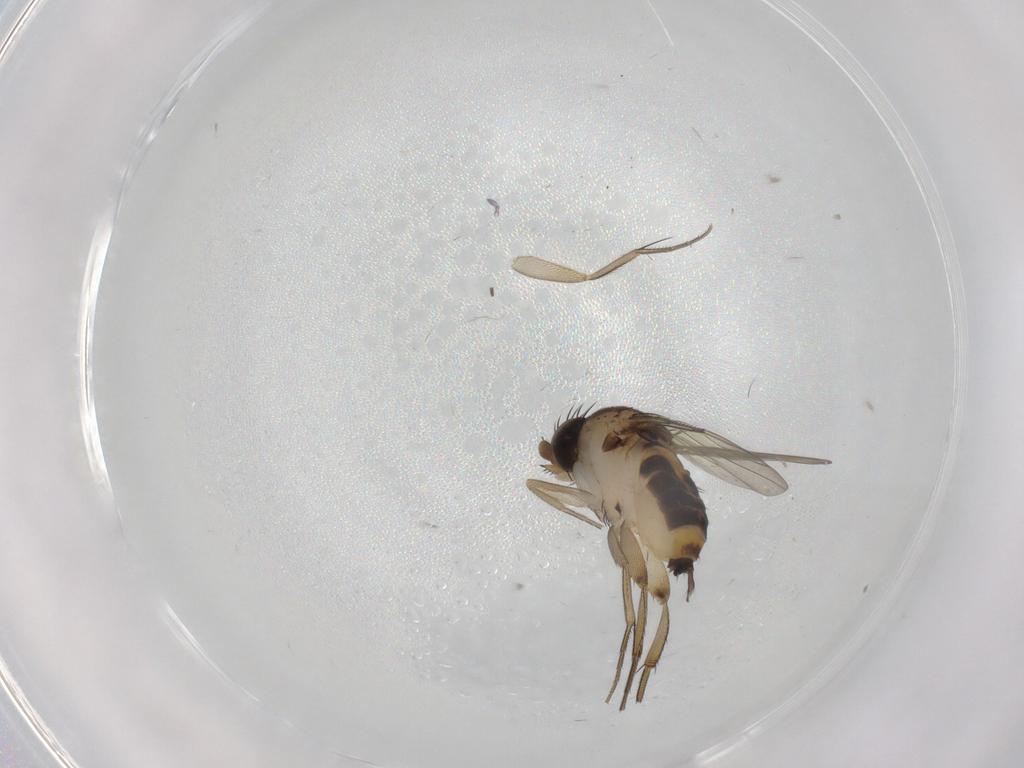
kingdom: Animalia
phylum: Arthropoda
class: Insecta
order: Diptera
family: Phoridae
